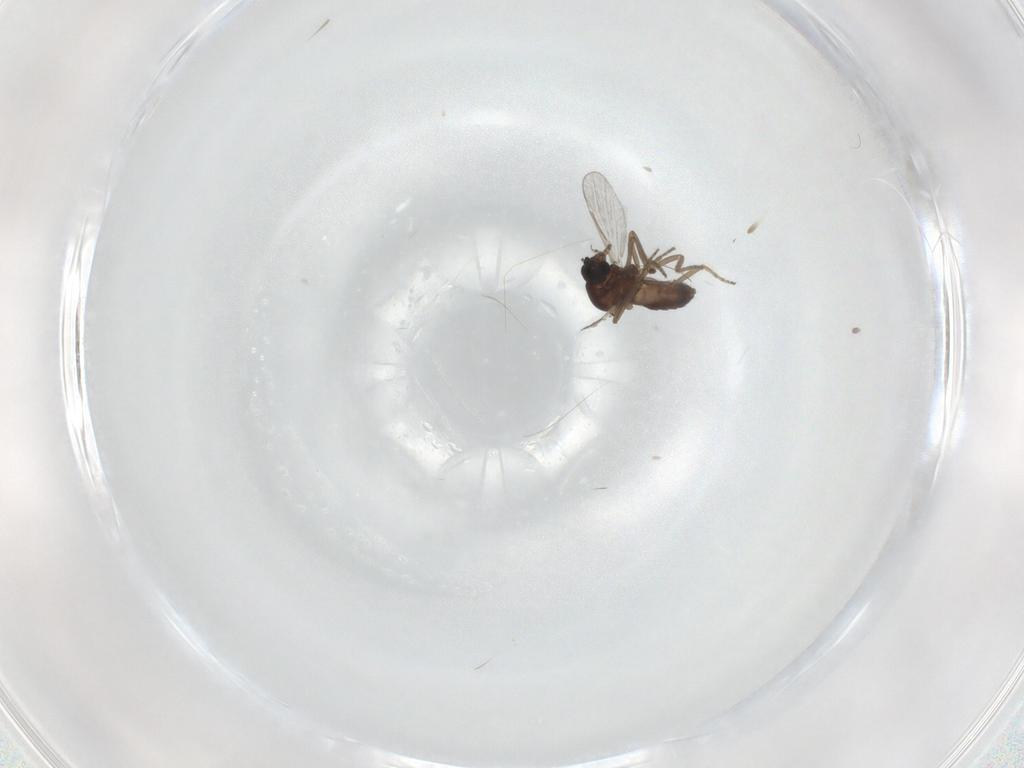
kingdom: Animalia
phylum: Arthropoda
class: Insecta
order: Diptera
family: Ceratopogonidae
